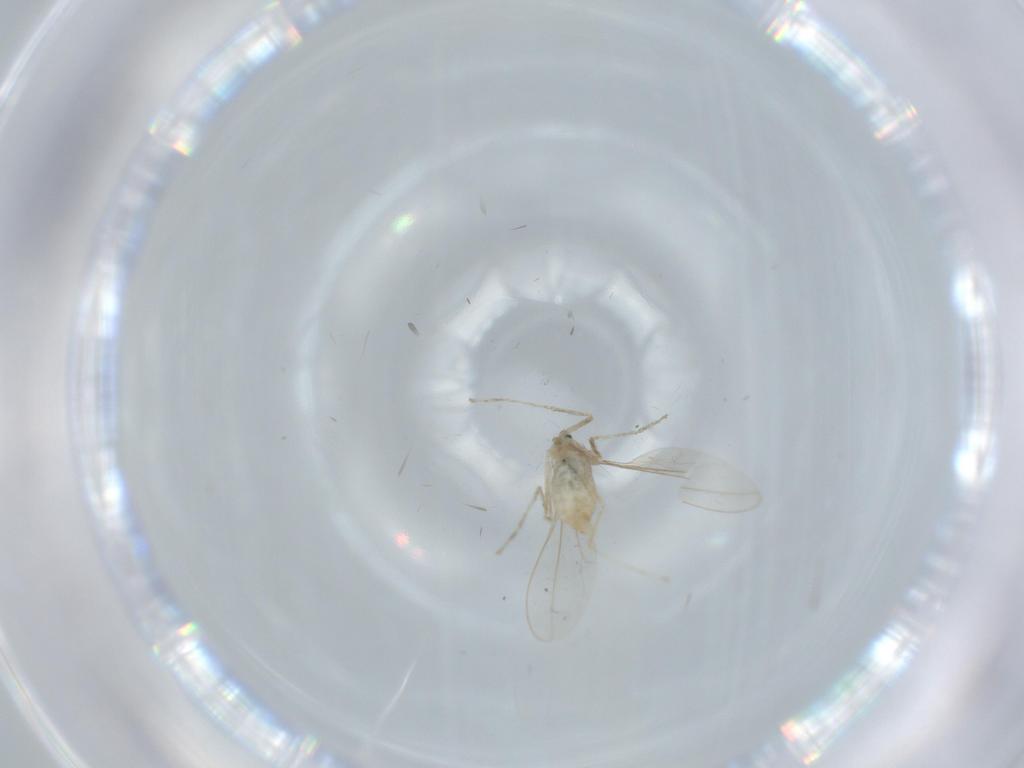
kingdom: Animalia
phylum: Arthropoda
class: Insecta
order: Diptera
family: Cecidomyiidae
